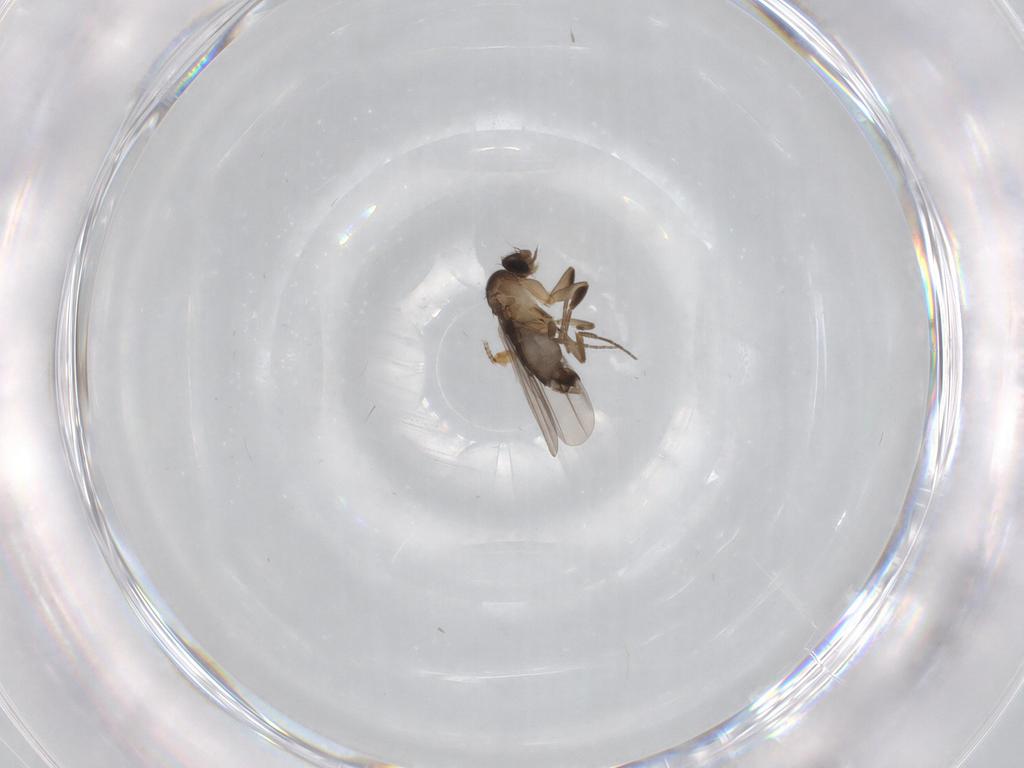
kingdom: Animalia
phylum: Arthropoda
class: Insecta
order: Diptera
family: Phoridae
